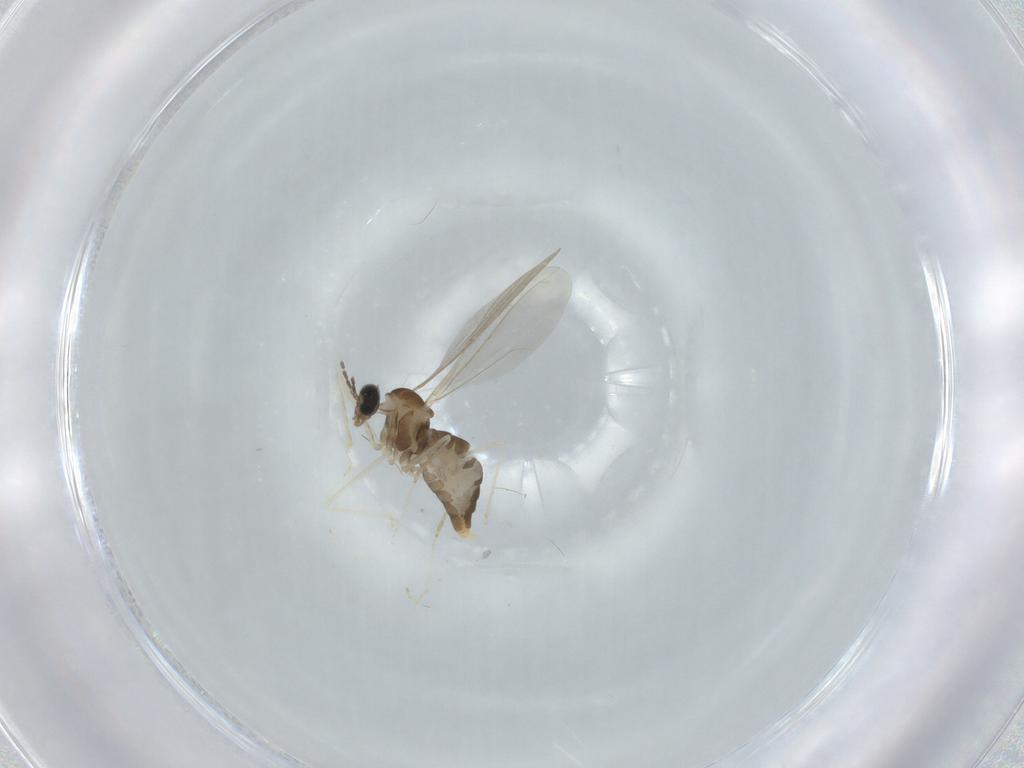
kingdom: Animalia
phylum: Arthropoda
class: Insecta
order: Diptera
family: Cecidomyiidae
